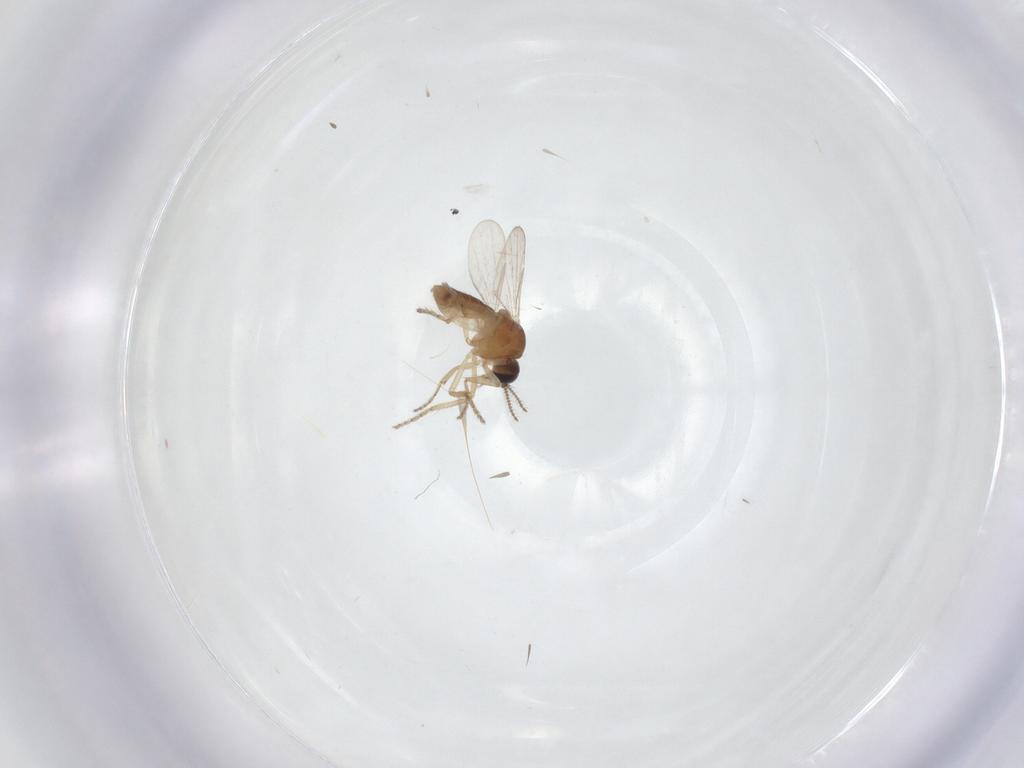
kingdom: Animalia
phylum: Arthropoda
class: Insecta
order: Diptera
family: Ceratopogonidae
